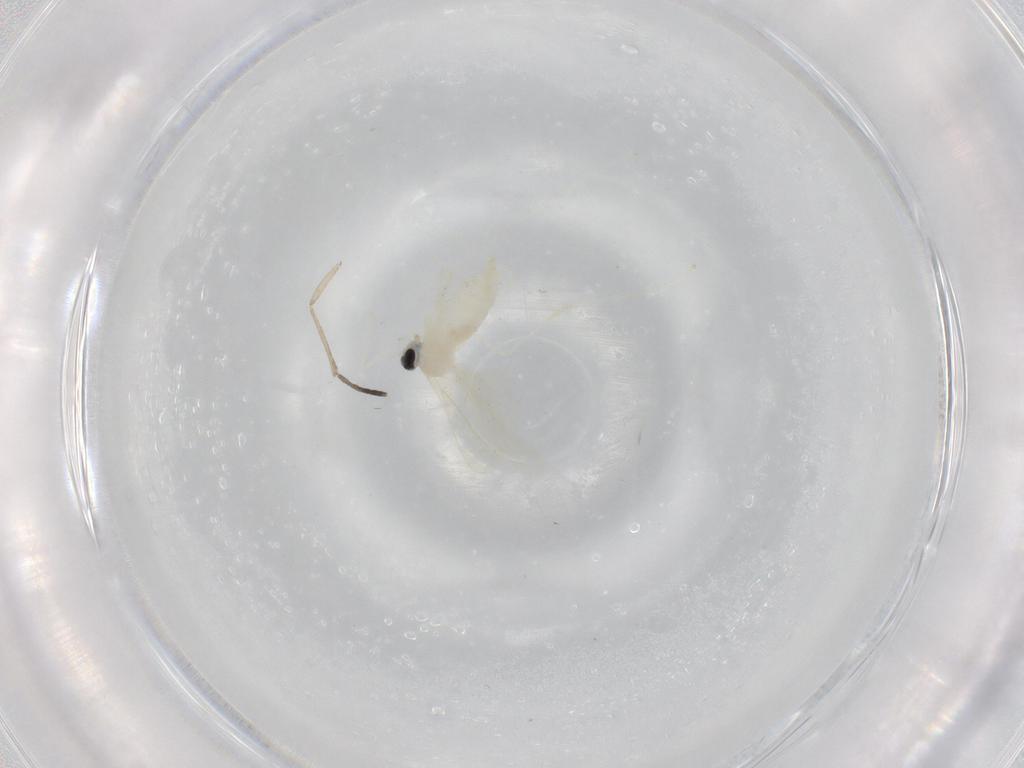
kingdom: Animalia
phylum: Arthropoda
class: Insecta
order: Diptera
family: Cecidomyiidae
